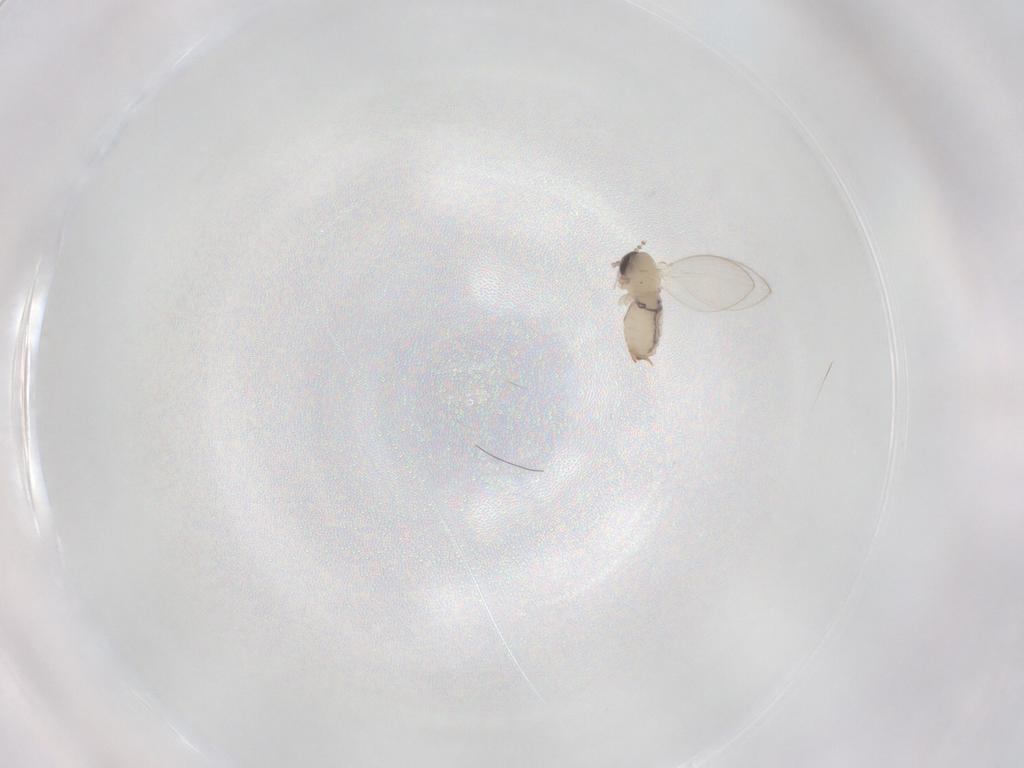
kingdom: Animalia
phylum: Arthropoda
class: Insecta
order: Diptera
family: Psychodidae
